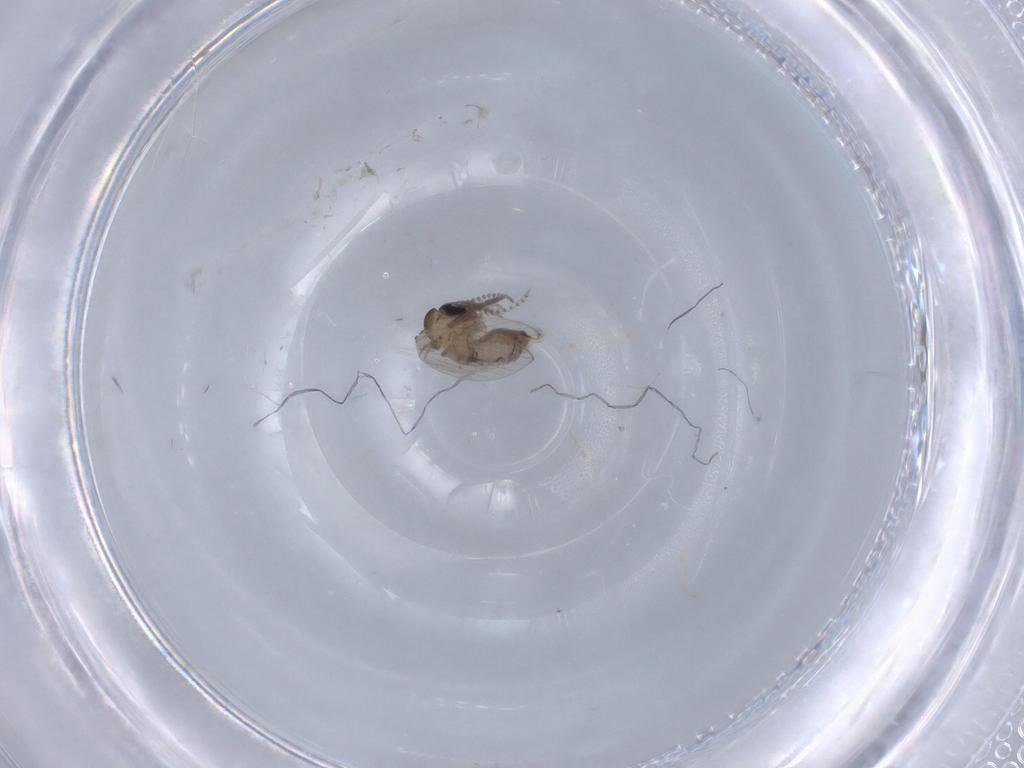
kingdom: Animalia
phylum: Arthropoda
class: Insecta
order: Diptera
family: Psychodidae
